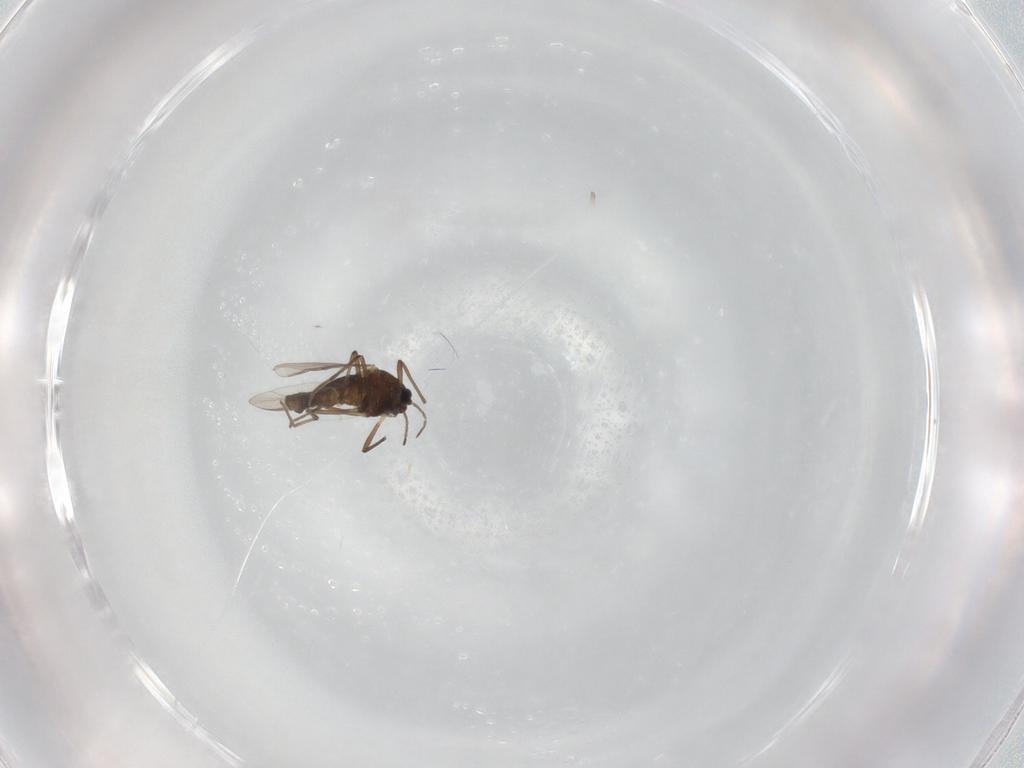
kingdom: Animalia
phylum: Arthropoda
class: Insecta
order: Diptera
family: Chironomidae
